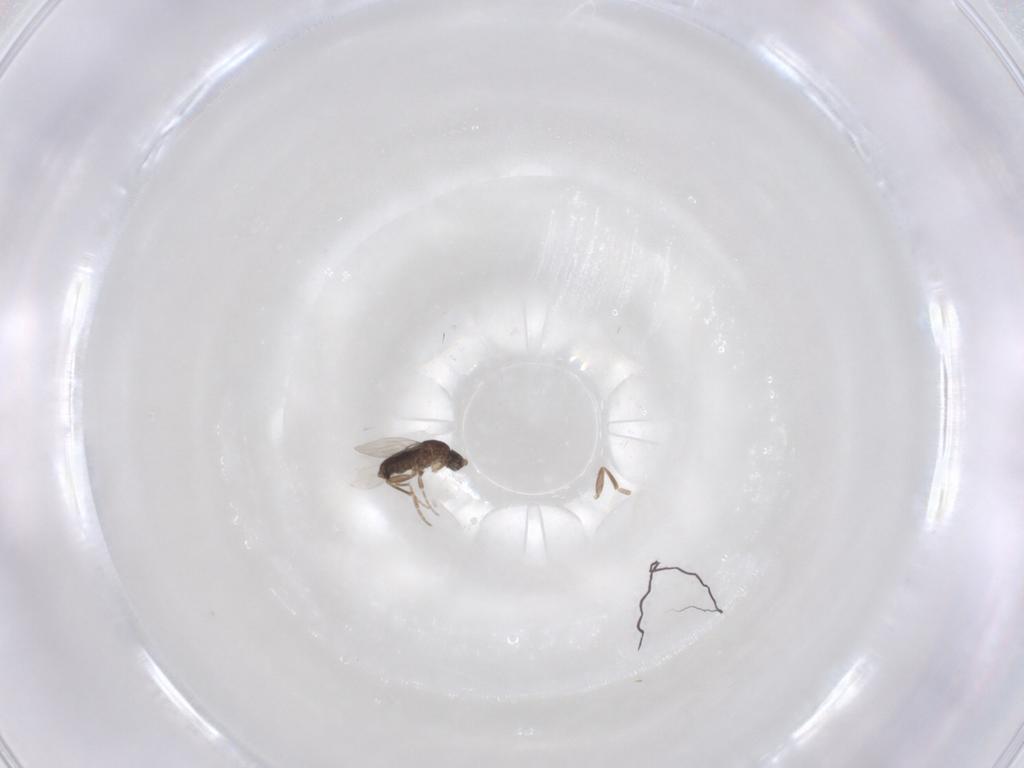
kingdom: Animalia
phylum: Arthropoda
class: Insecta
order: Diptera
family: Phoridae
